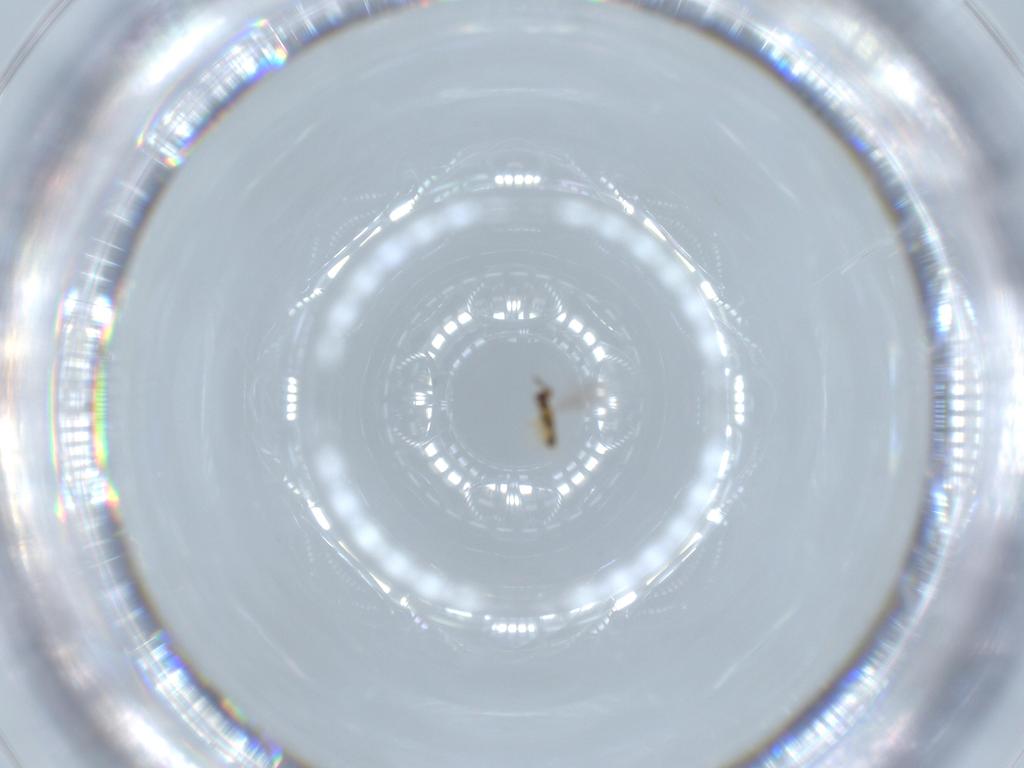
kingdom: Animalia
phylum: Arthropoda
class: Insecta
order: Hymenoptera
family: Aphelinidae
